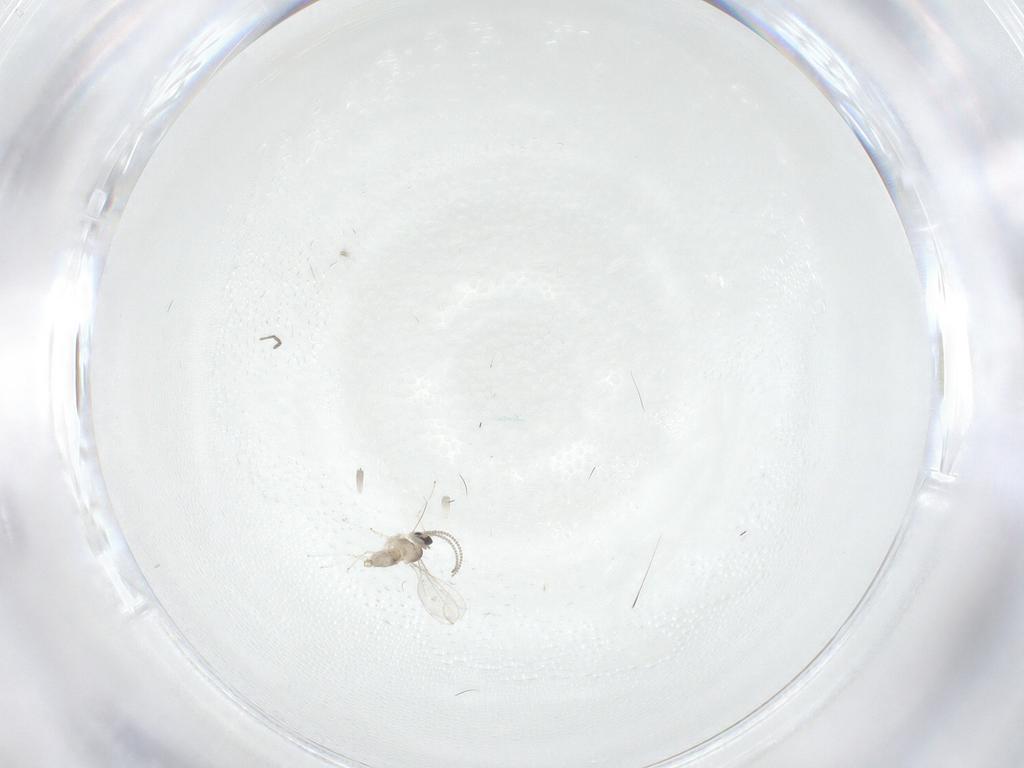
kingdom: Animalia
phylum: Arthropoda
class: Insecta
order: Diptera
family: Cecidomyiidae
